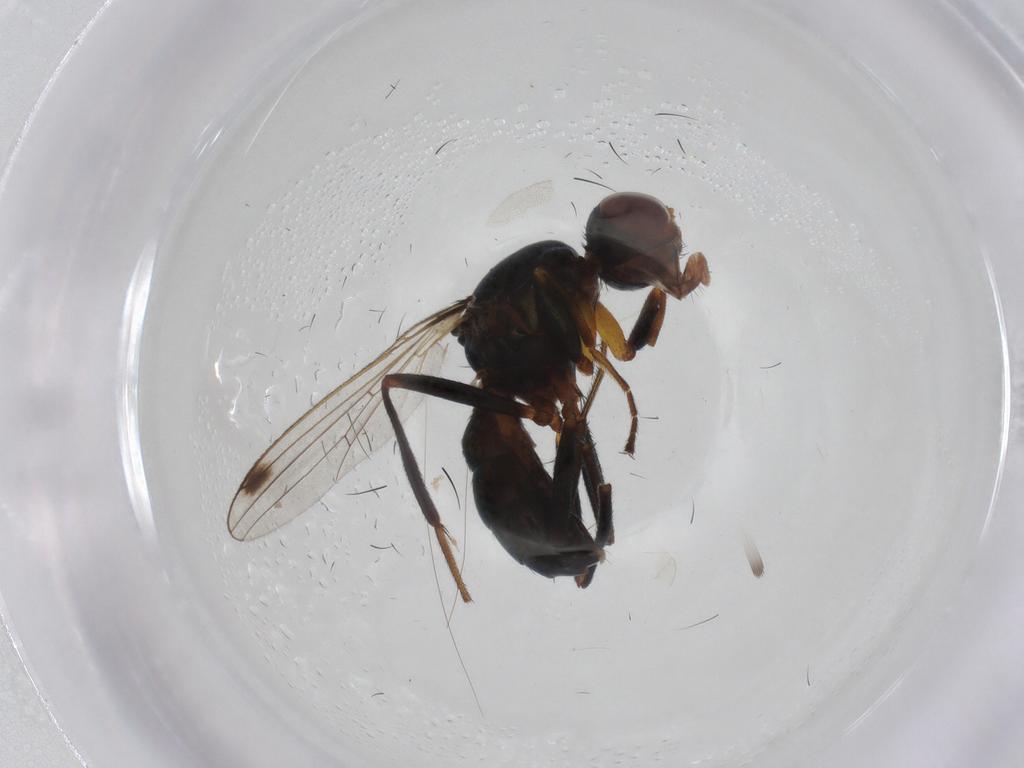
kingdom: Animalia
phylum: Arthropoda
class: Insecta
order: Diptera
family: Sepsidae
